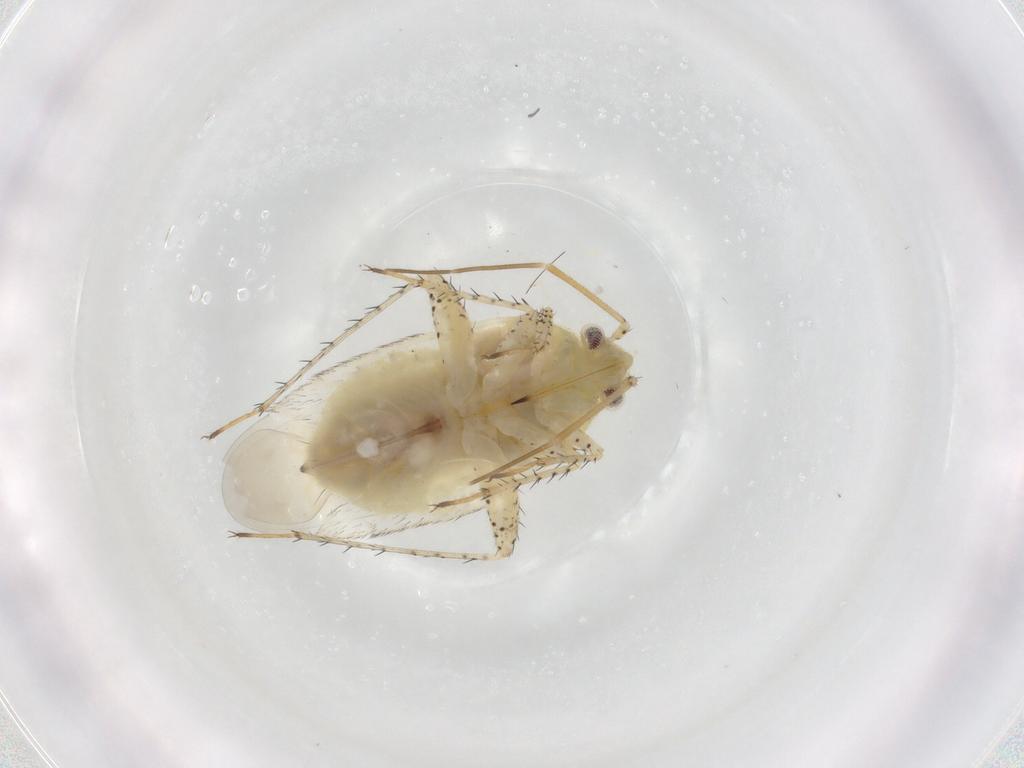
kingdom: Animalia
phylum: Arthropoda
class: Insecta
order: Hemiptera
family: Miridae
